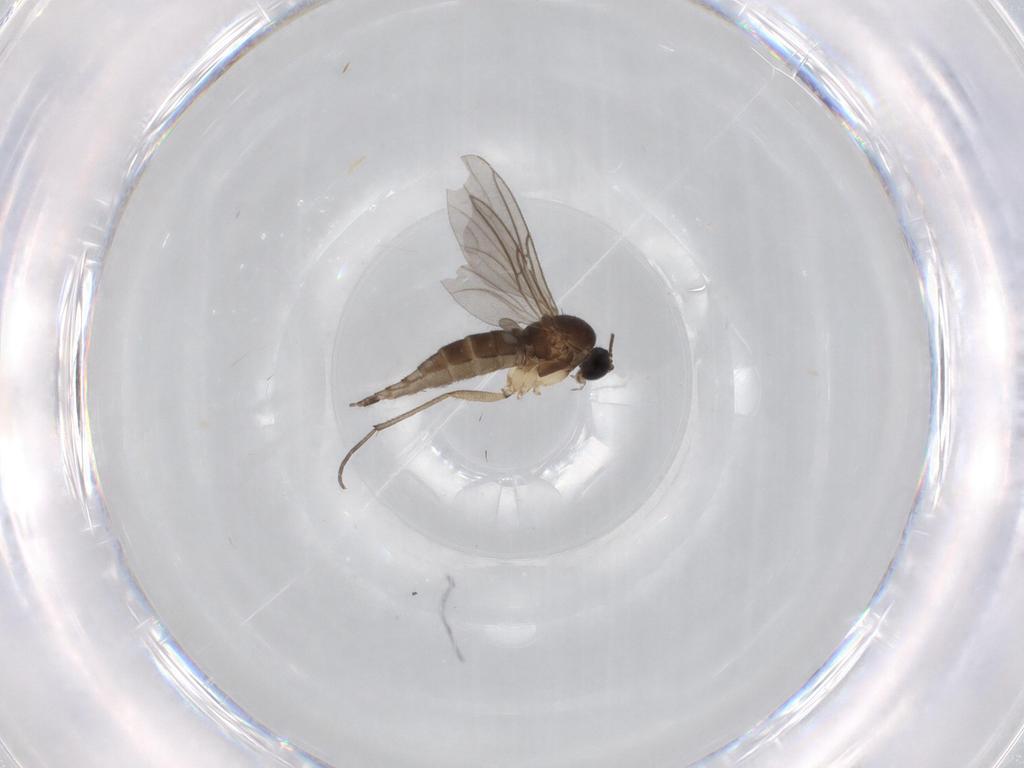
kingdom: Animalia
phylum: Arthropoda
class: Insecta
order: Diptera
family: Sciaridae
